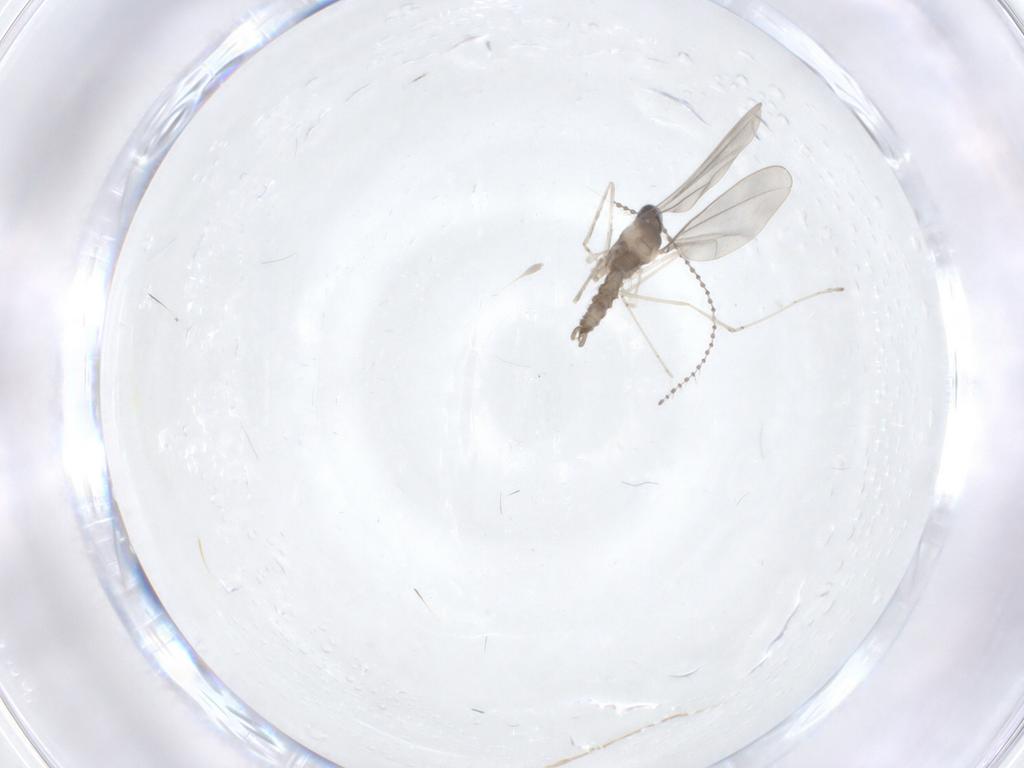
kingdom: Animalia
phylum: Arthropoda
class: Insecta
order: Diptera
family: Cecidomyiidae
